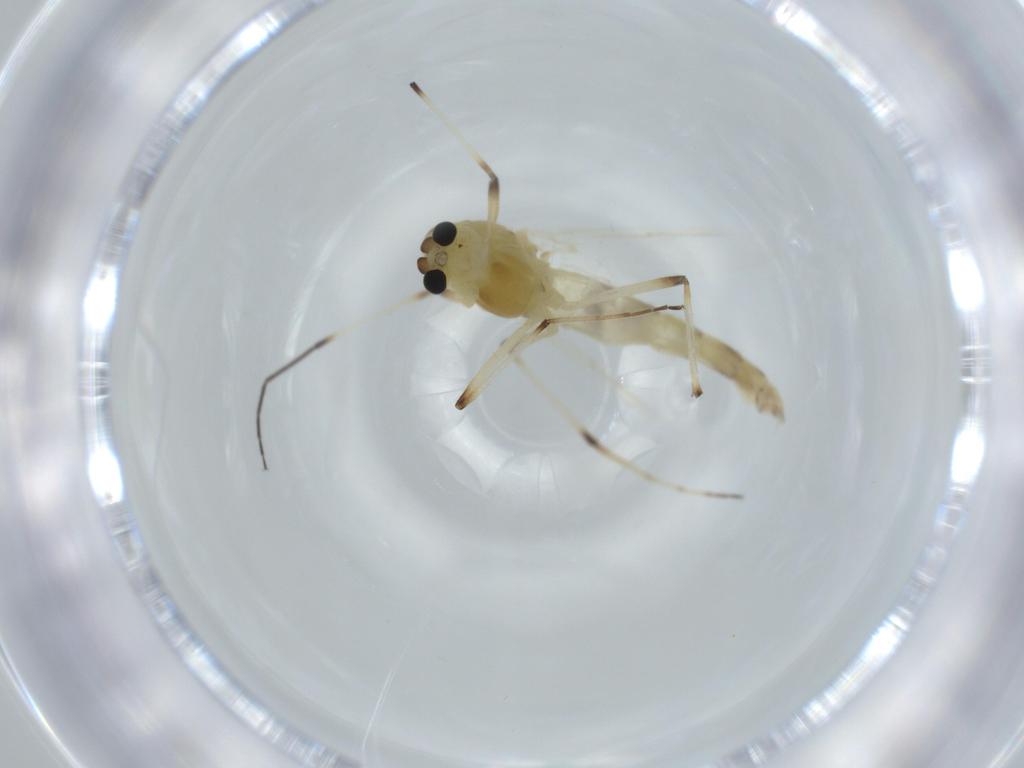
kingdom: Animalia
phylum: Arthropoda
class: Insecta
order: Diptera
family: Chironomidae
